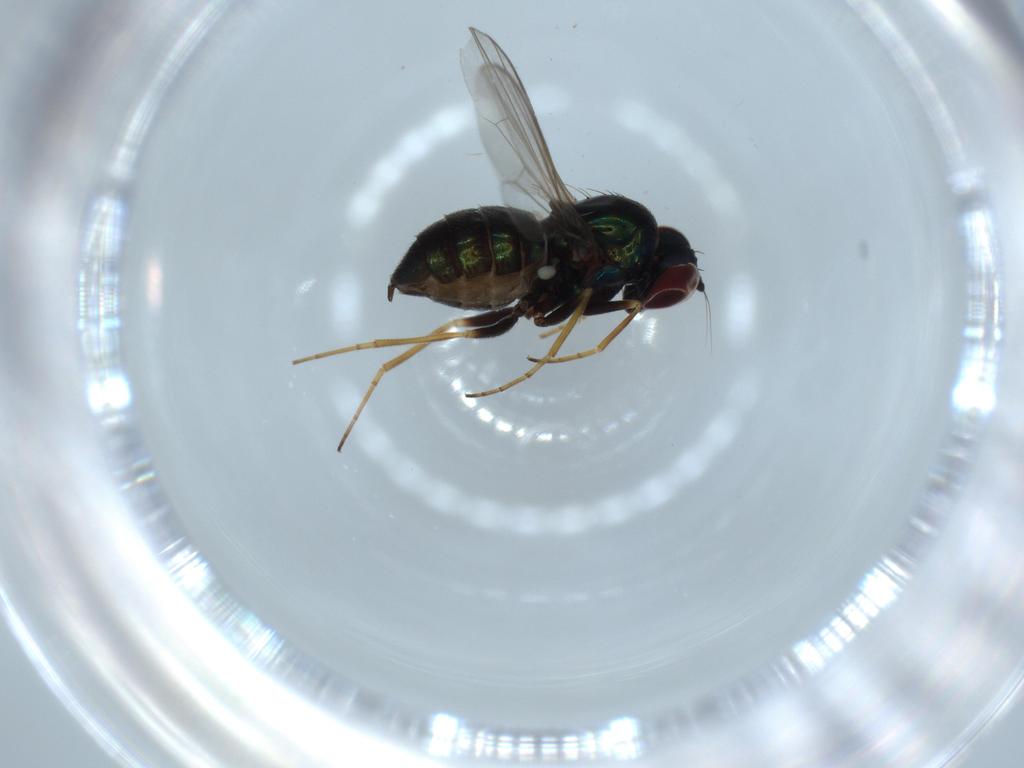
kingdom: Animalia
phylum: Arthropoda
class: Insecta
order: Diptera
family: Dolichopodidae
